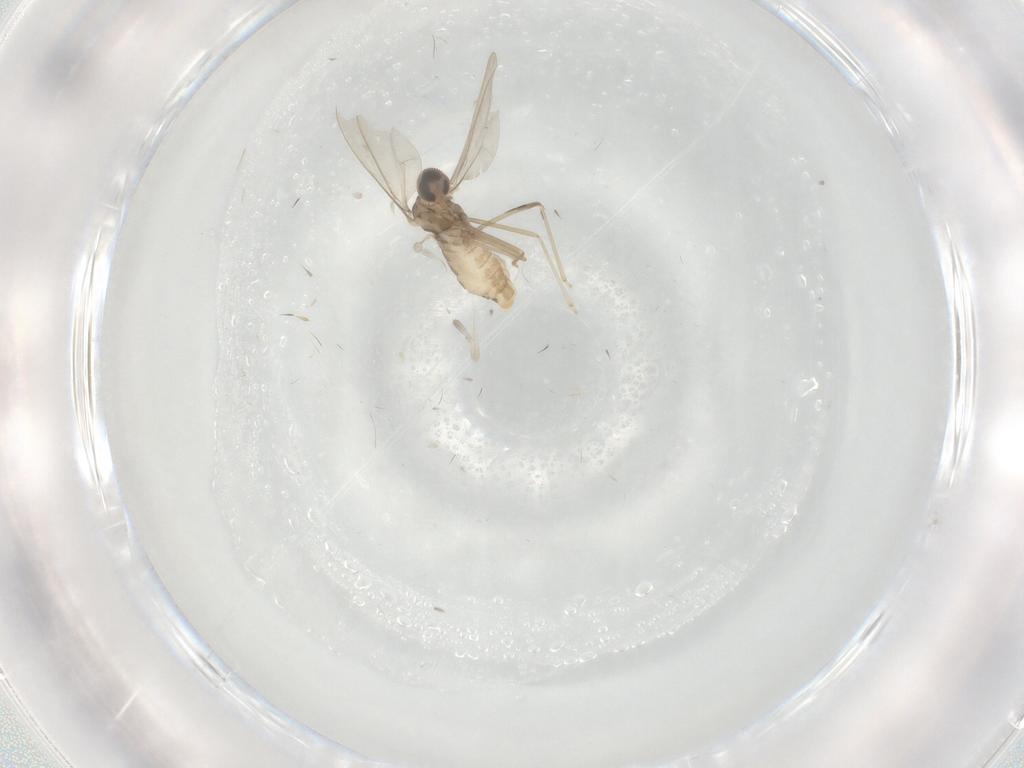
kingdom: Animalia
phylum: Arthropoda
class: Insecta
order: Diptera
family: Cecidomyiidae
